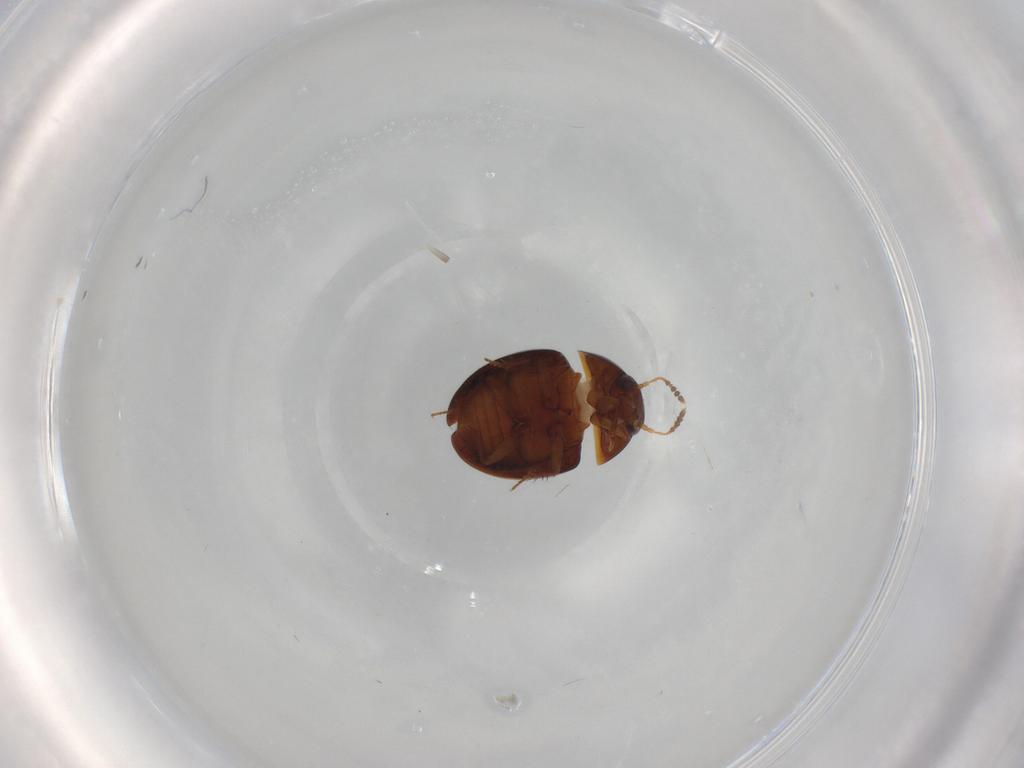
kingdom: Animalia
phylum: Arthropoda
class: Insecta
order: Coleoptera
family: Leiodidae
